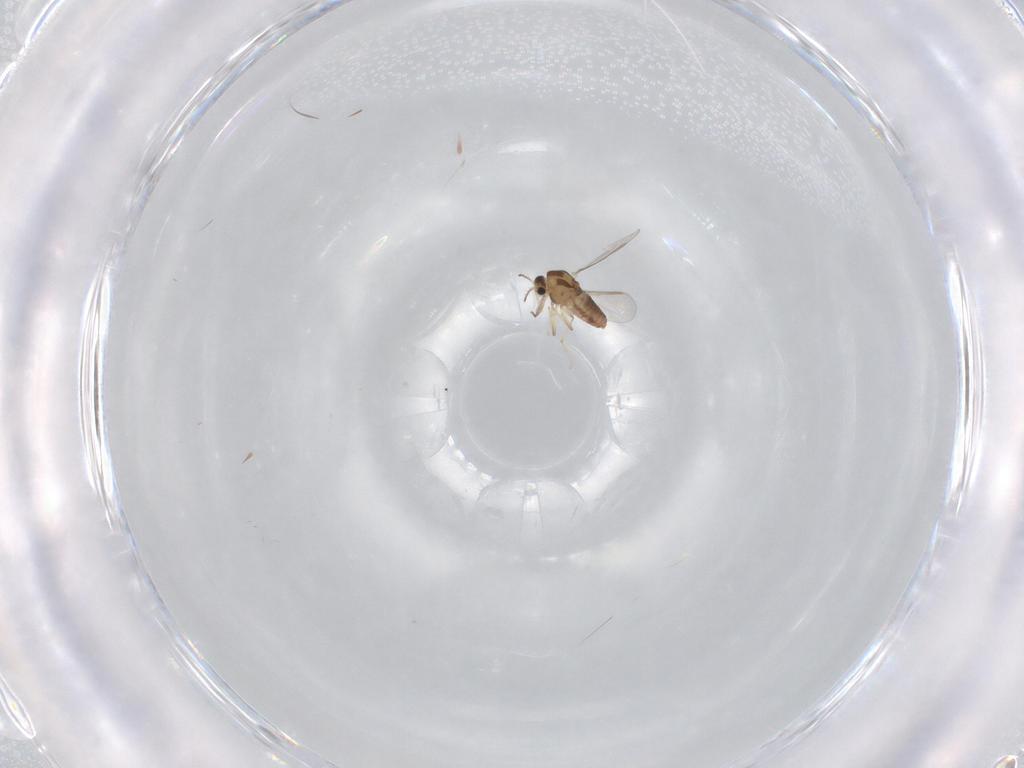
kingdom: Animalia
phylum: Arthropoda
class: Insecta
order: Diptera
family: Chironomidae
